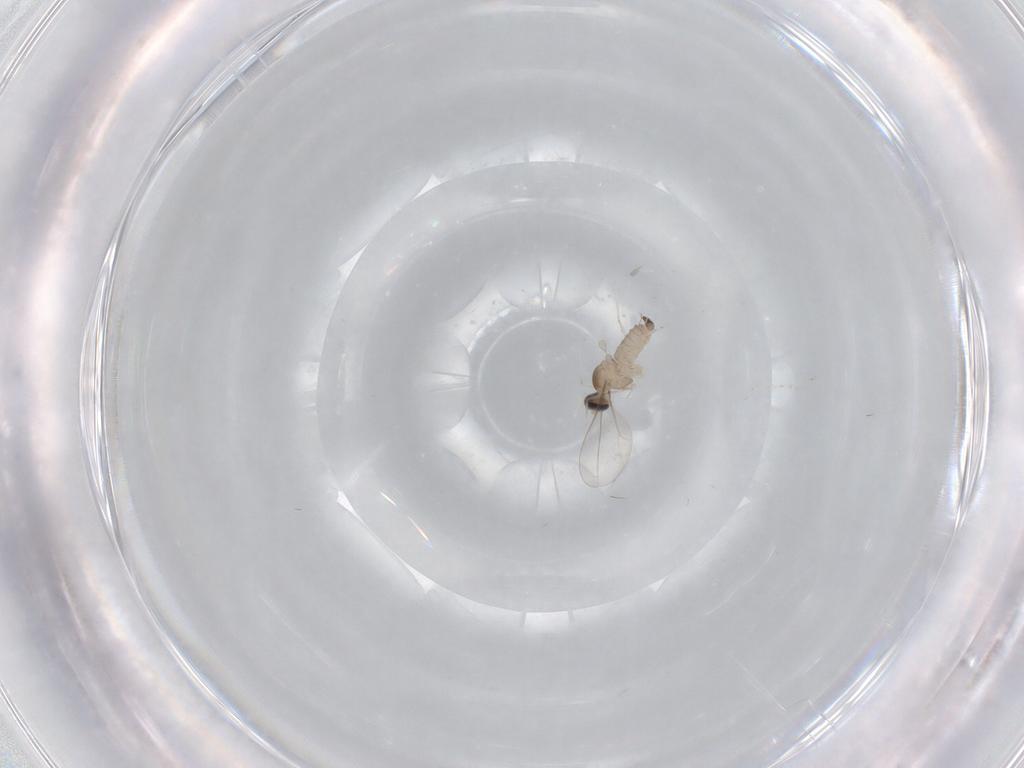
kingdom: Animalia
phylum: Arthropoda
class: Insecta
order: Diptera
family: Cecidomyiidae
